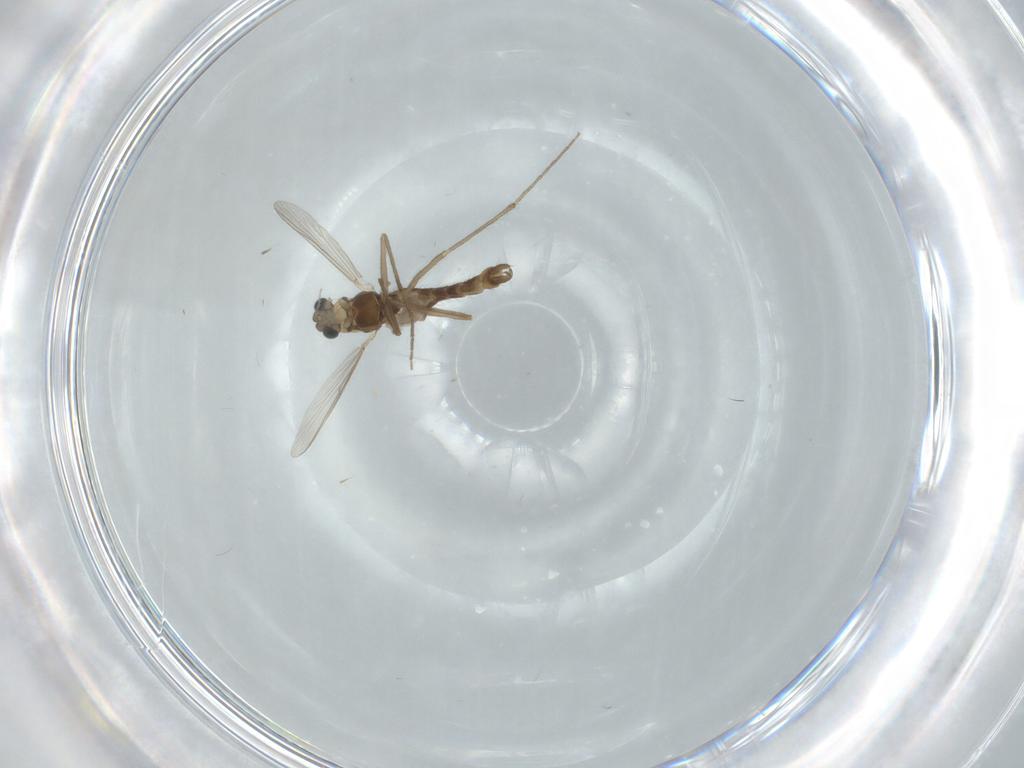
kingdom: Animalia
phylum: Arthropoda
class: Insecta
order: Diptera
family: Chironomidae
